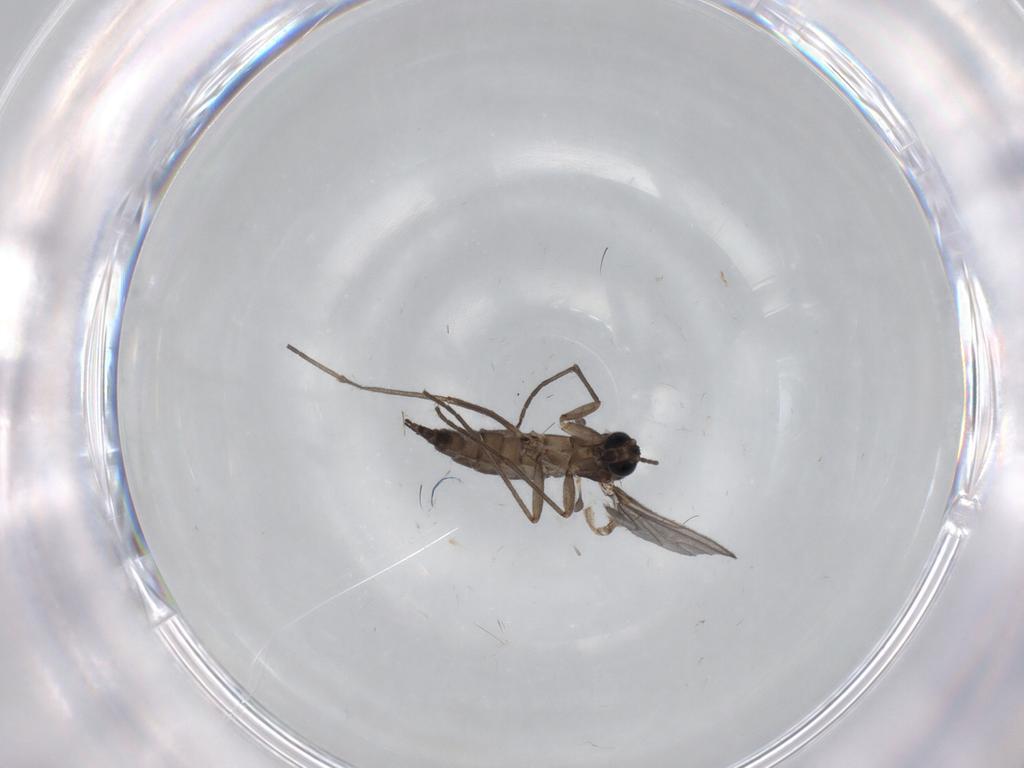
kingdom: Animalia
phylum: Arthropoda
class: Insecta
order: Diptera
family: Sciaridae
